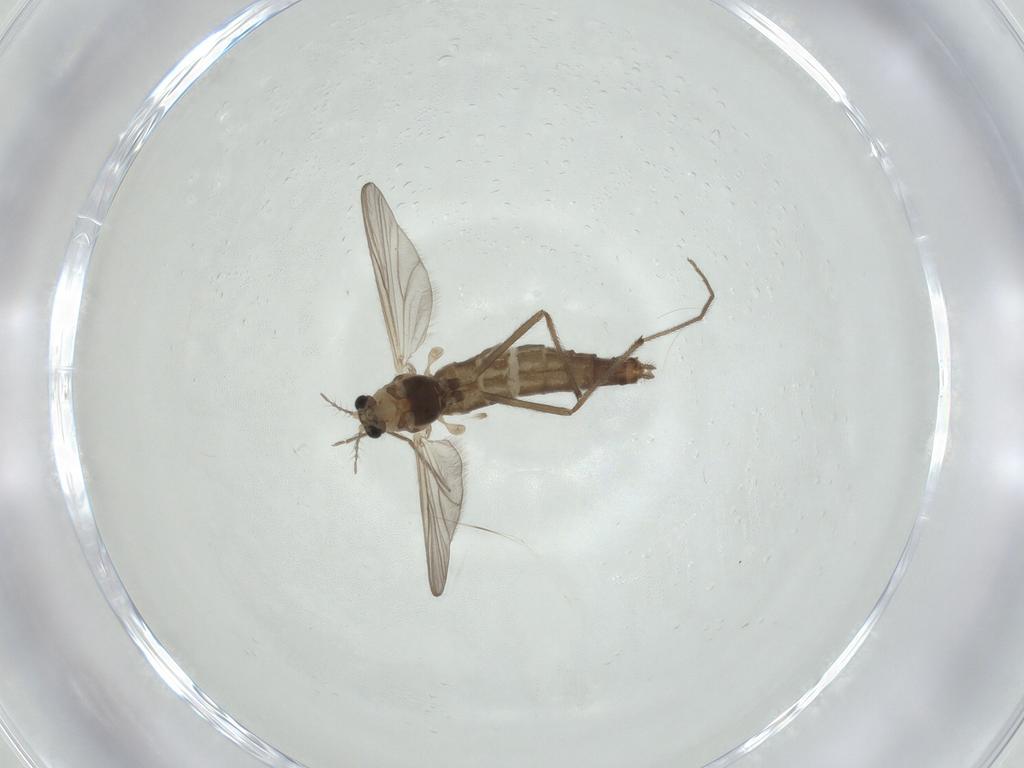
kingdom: Animalia
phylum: Arthropoda
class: Insecta
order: Diptera
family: Chironomidae
